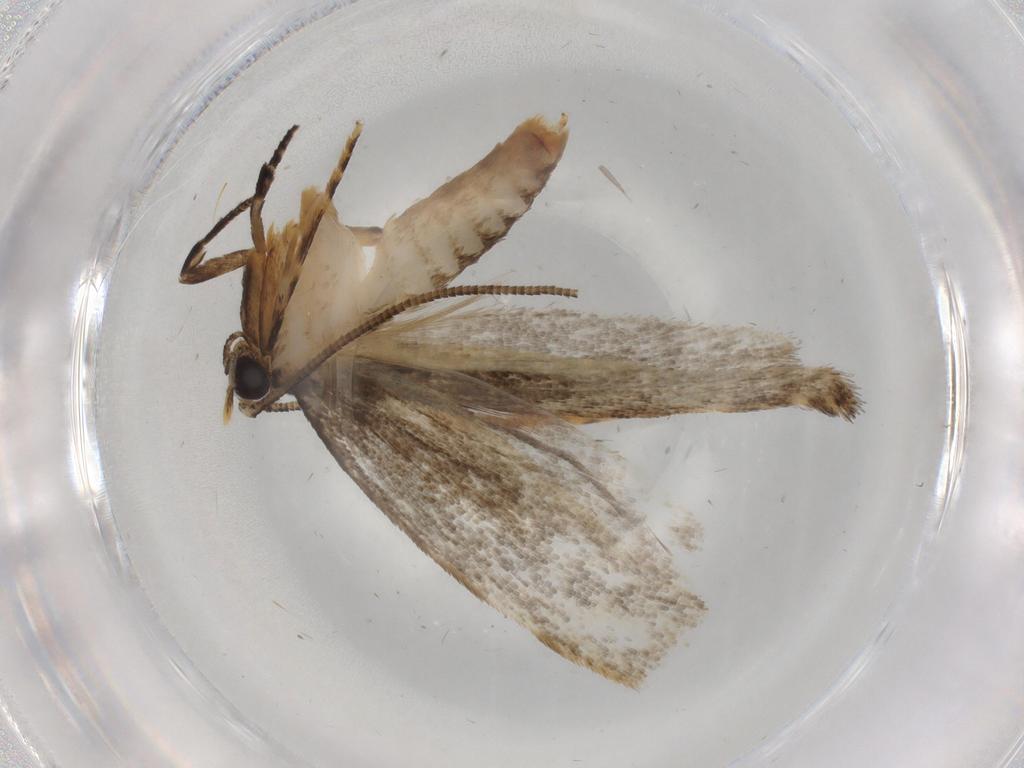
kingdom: Animalia
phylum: Arthropoda
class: Insecta
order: Lepidoptera
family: Tineidae
